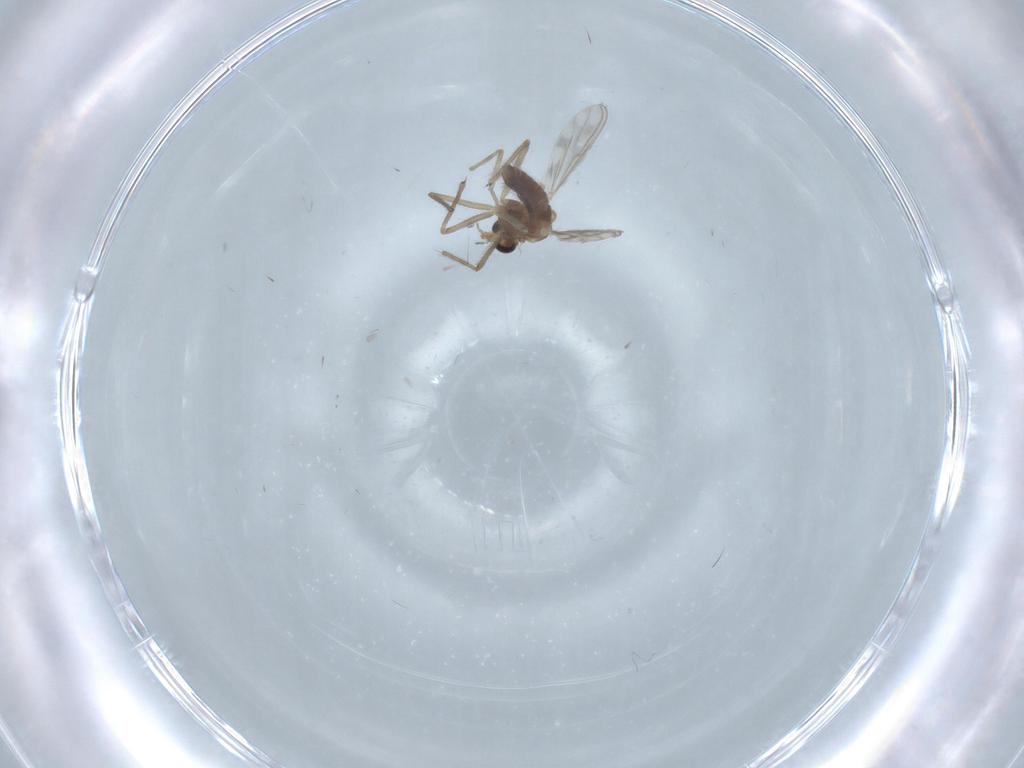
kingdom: Animalia
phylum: Arthropoda
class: Insecta
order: Diptera
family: Chironomidae
